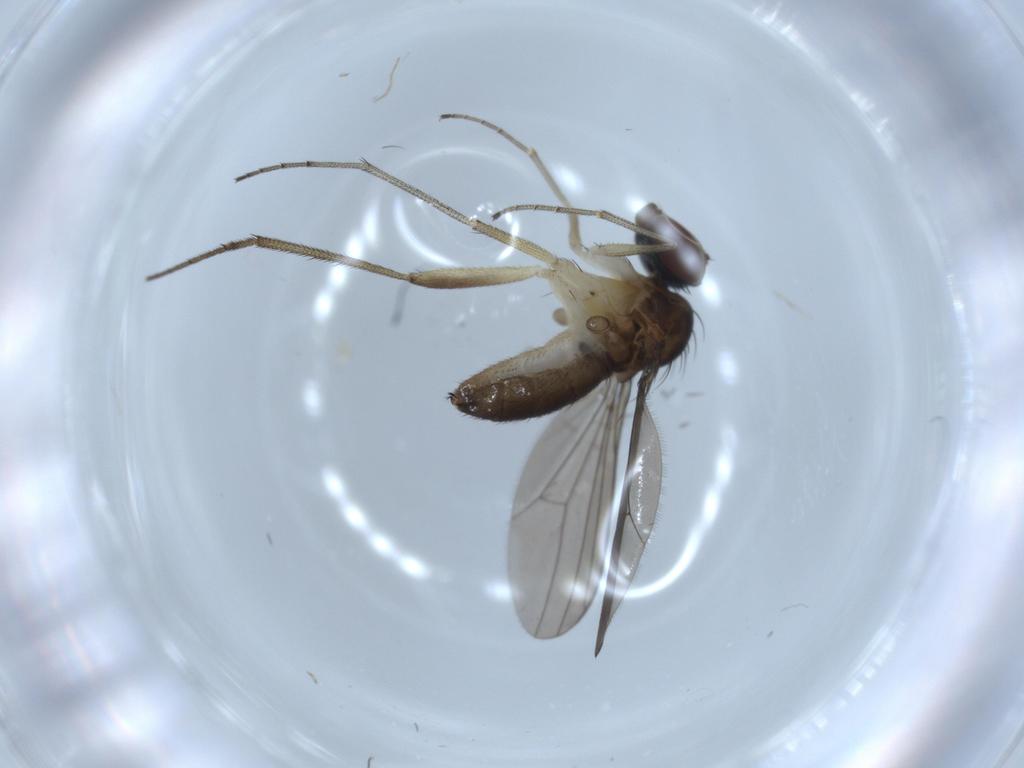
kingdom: Animalia
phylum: Arthropoda
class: Insecta
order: Diptera
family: Dolichopodidae
